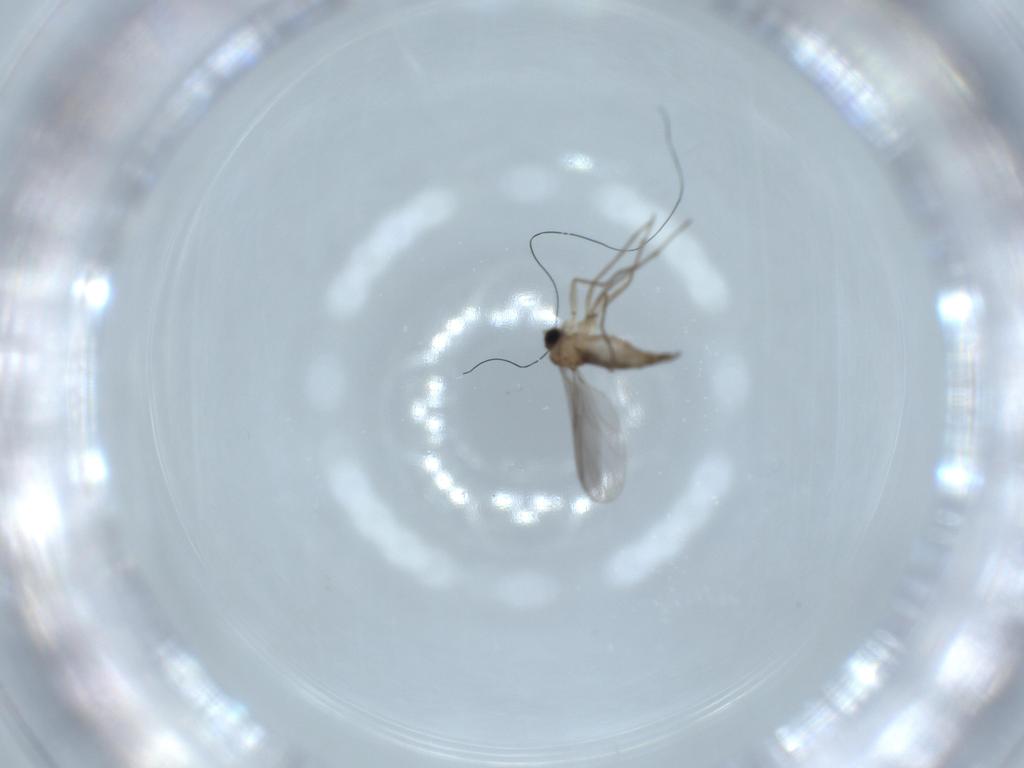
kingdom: Animalia
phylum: Arthropoda
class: Insecta
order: Diptera
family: Sciaridae
